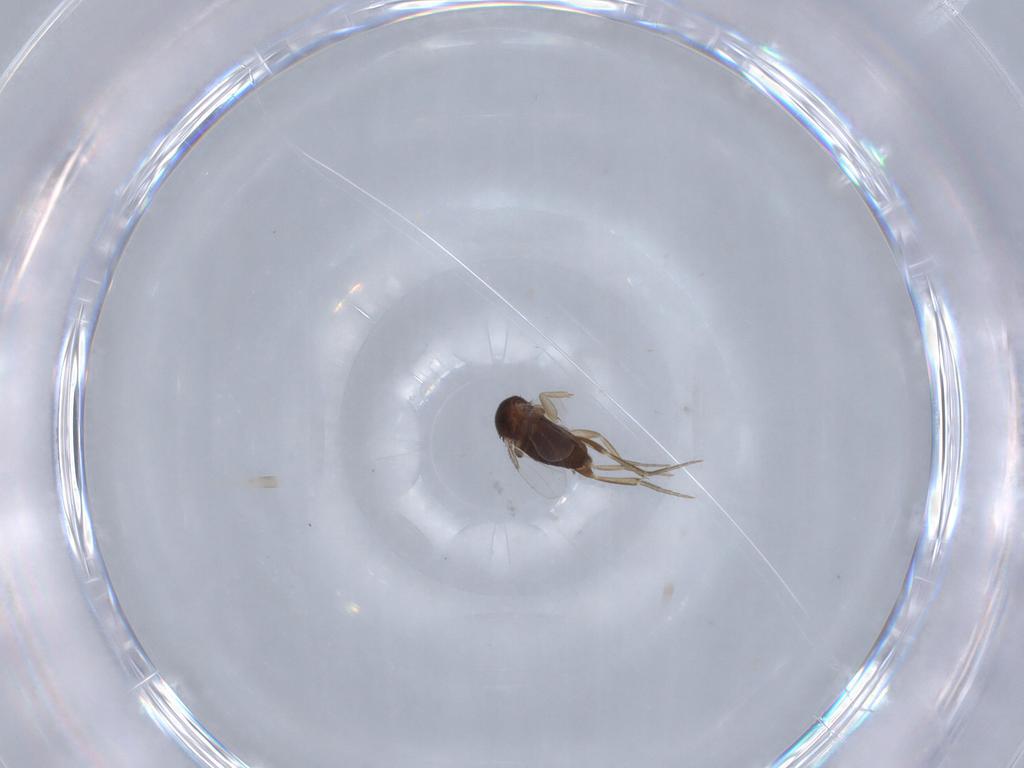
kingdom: Animalia
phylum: Arthropoda
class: Insecta
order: Diptera
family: Phoridae
